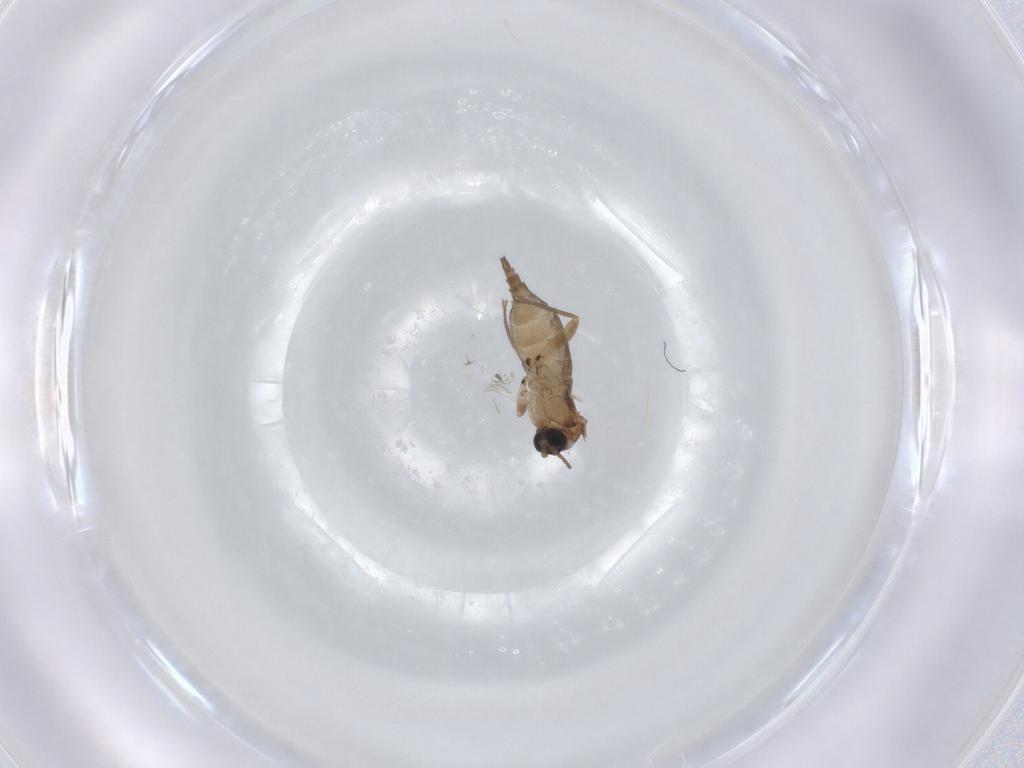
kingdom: Animalia
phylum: Arthropoda
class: Insecta
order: Diptera
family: Sciaridae
